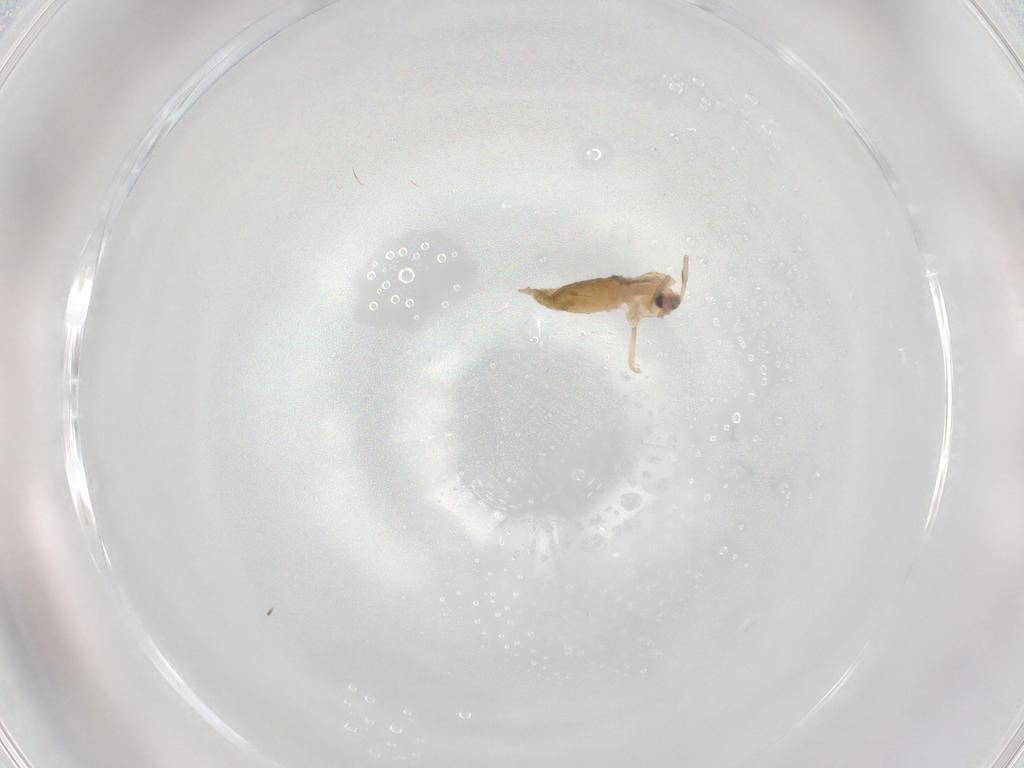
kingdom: Animalia
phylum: Arthropoda
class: Insecta
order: Diptera
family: Chironomidae
